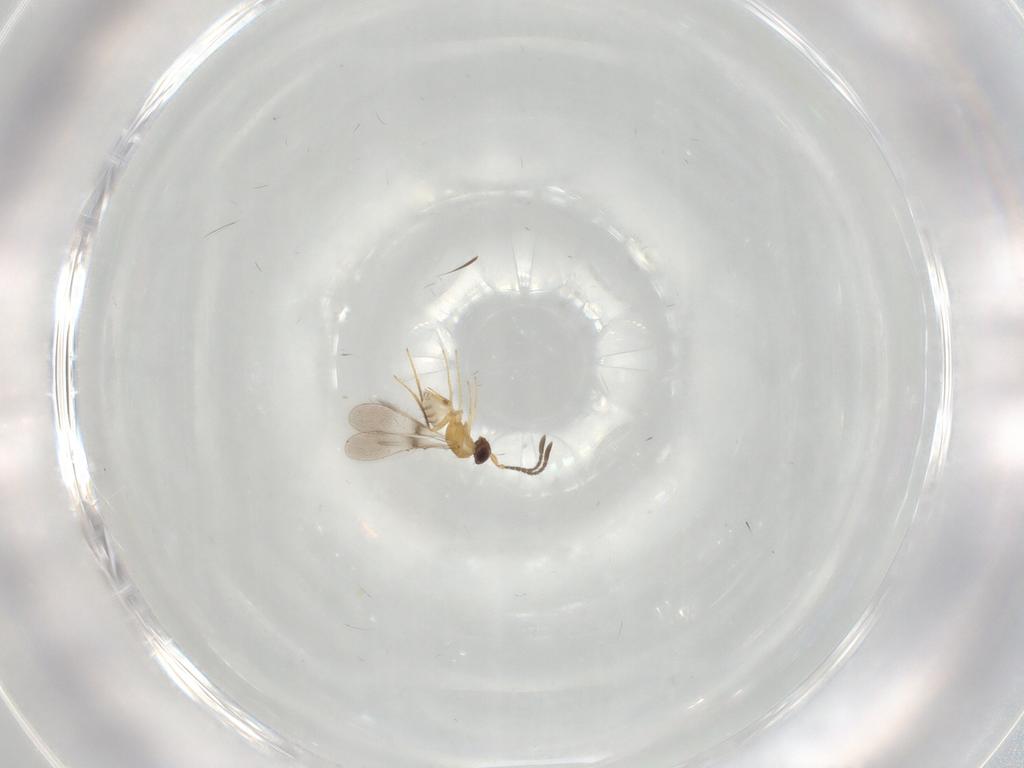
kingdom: Animalia
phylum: Arthropoda
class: Insecta
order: Hymenoptera
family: Mymaridae
